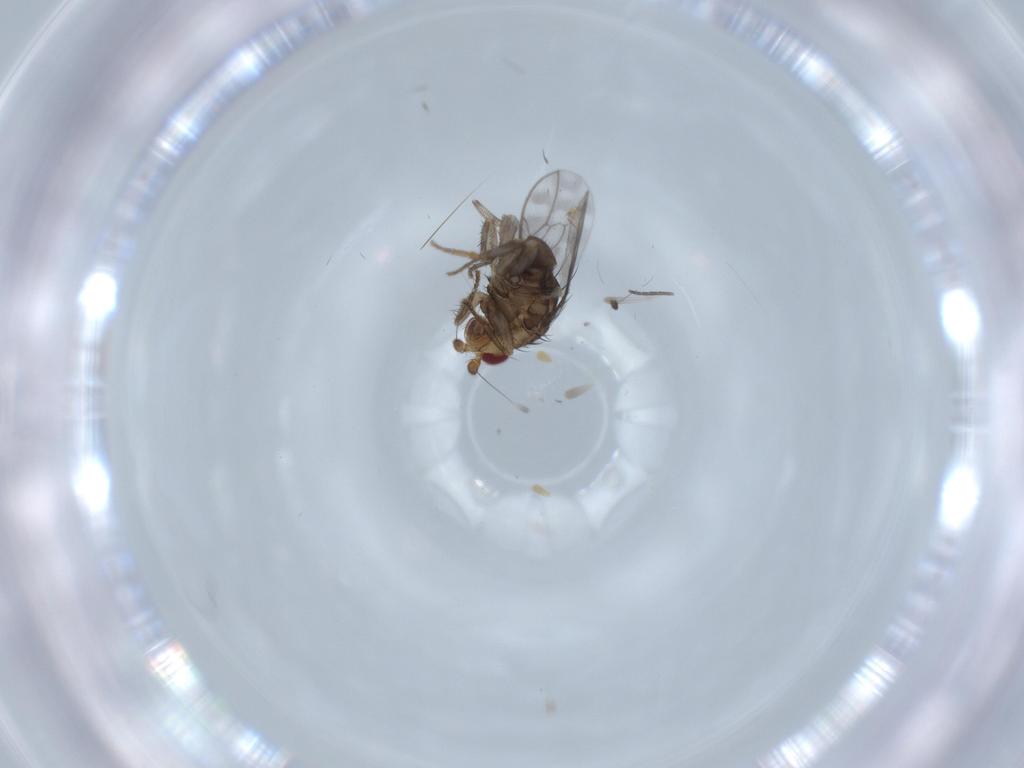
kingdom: Animalia
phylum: Arthropoda
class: Insecta
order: Diptera
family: Sphaeroceridae
